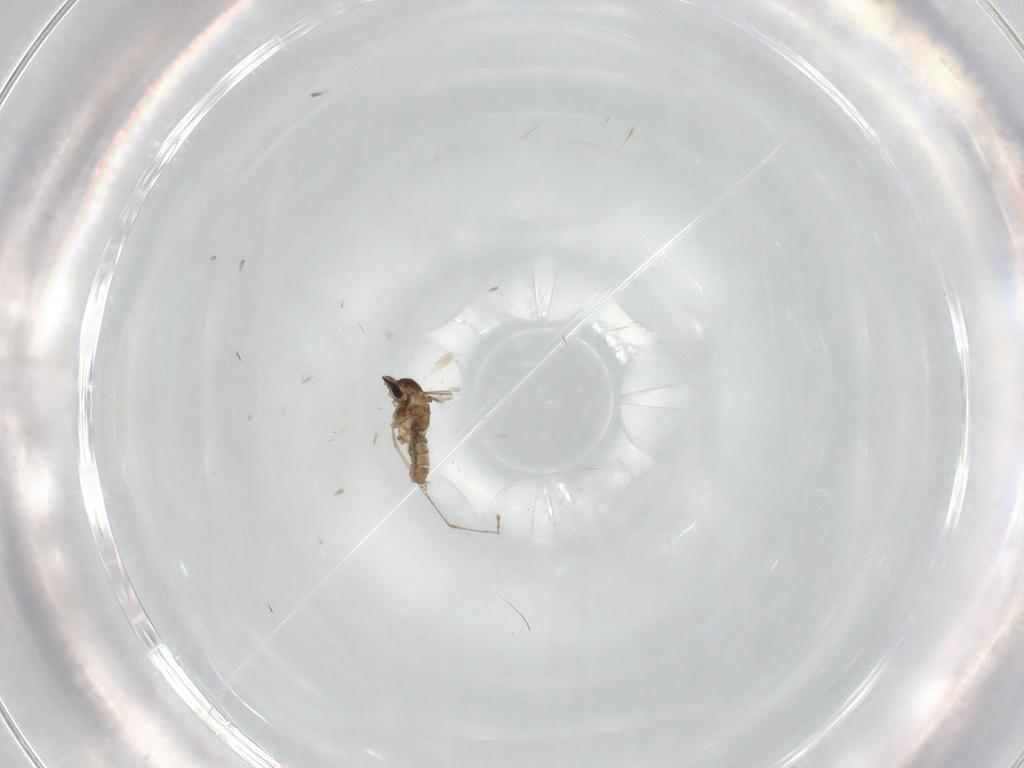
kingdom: Animalia
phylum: Arthropoda
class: Insecta
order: Diptera
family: Cecidomyiidae
